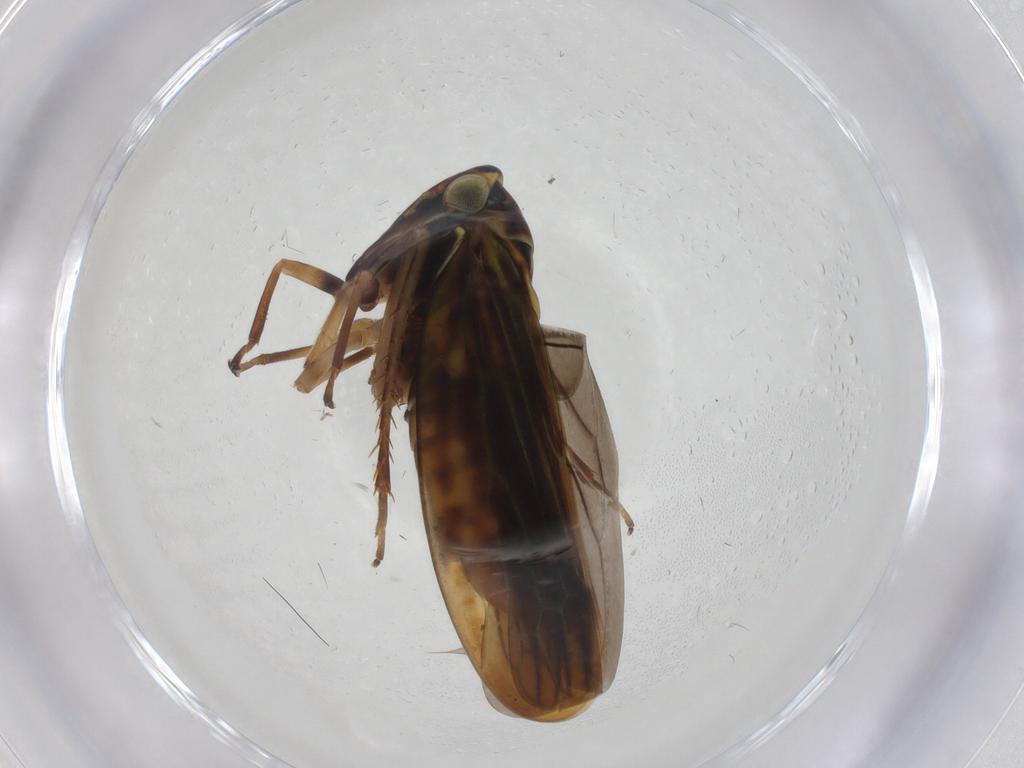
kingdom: Animalia
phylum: Arthropoda
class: Insecta
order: Hemiptera
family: Cicadellidae
